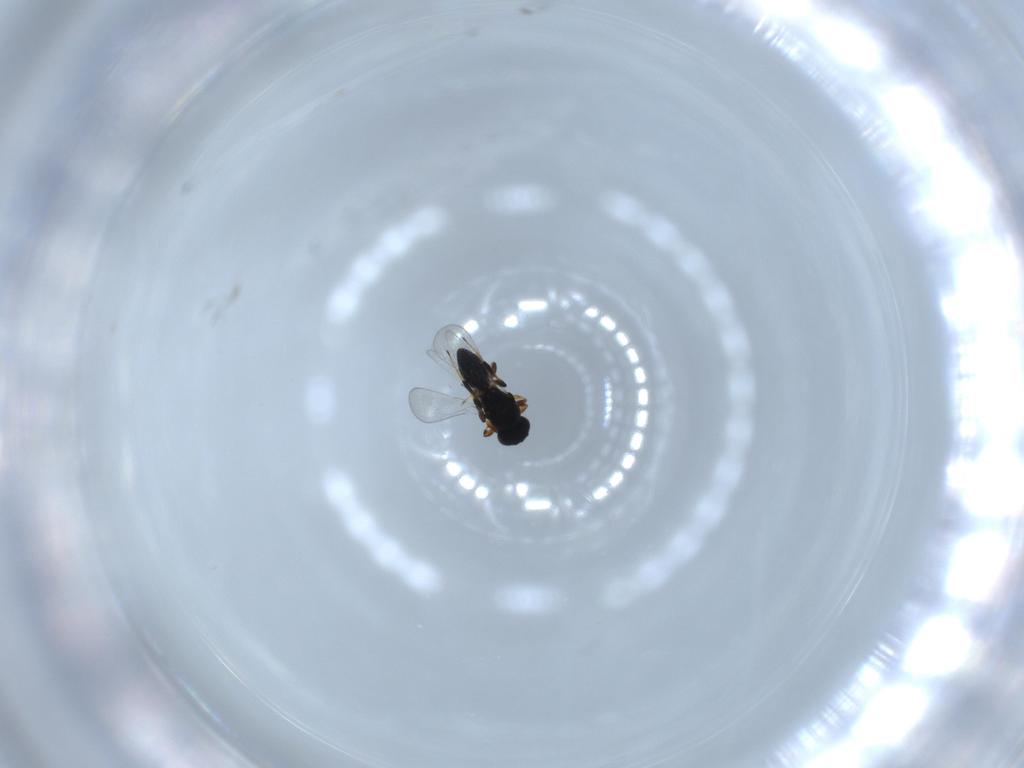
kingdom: Animalia
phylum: Arthropoda
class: Insecta
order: Hymenoptera
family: Platygastridae
